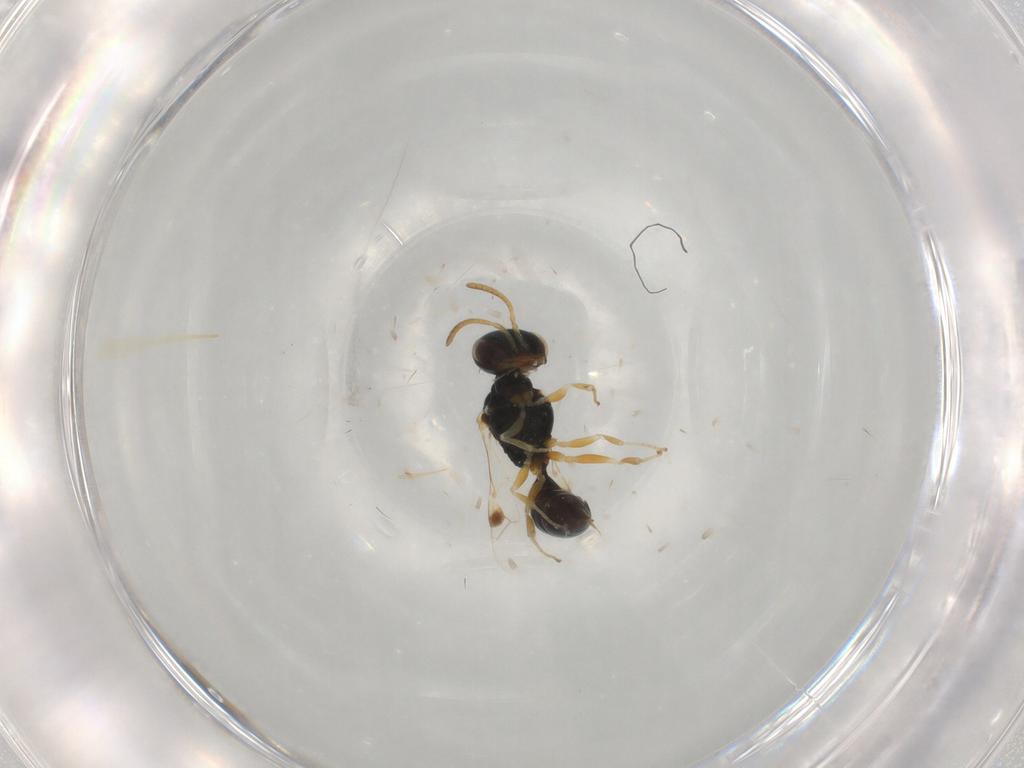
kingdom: Animalia
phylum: Arthropoda
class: Insecta
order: Hymenoptera
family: Pemphredonidae
